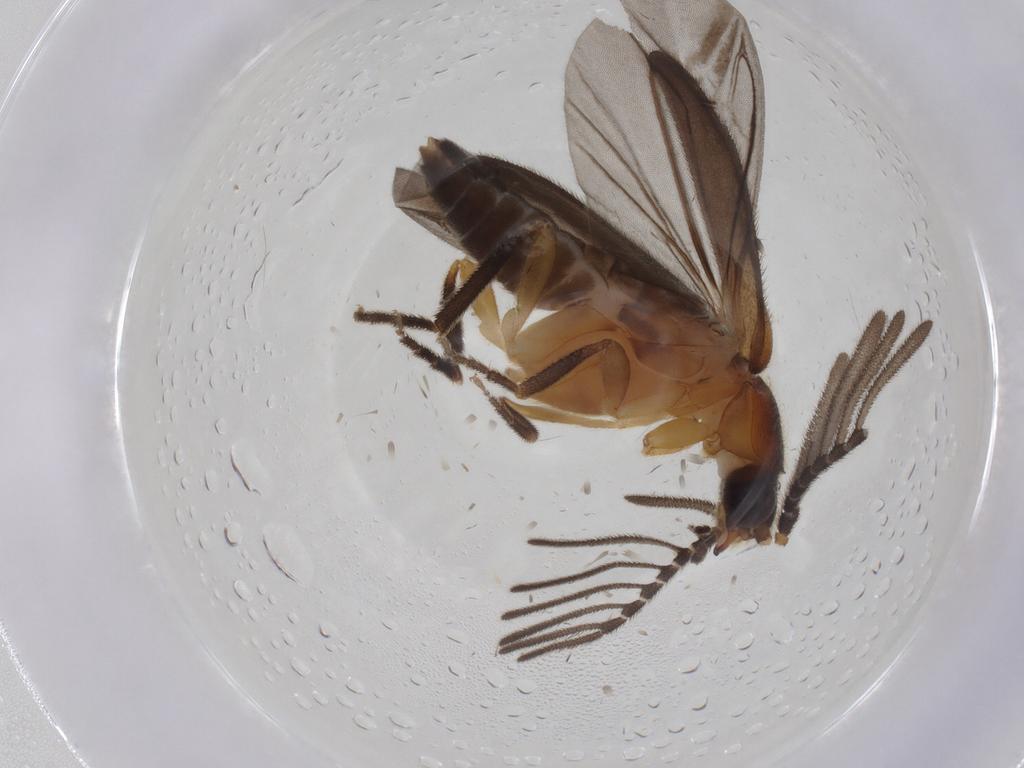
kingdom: Animalia
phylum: Arthropoda
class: Insecta
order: Coleoptera
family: Lampyridae
